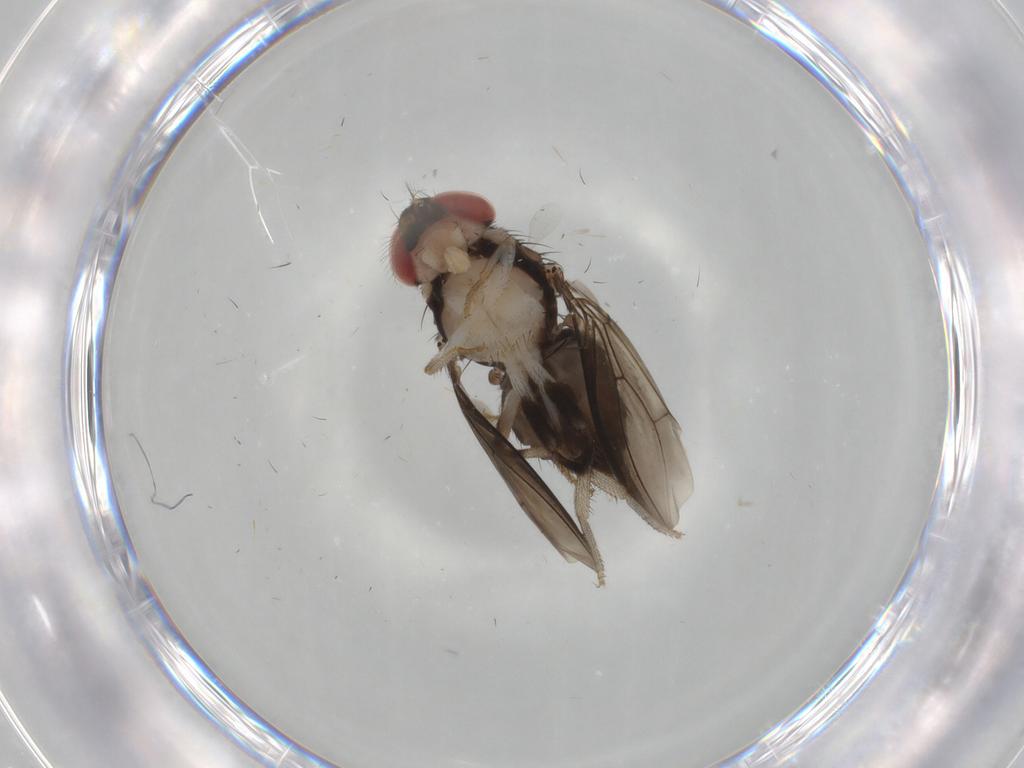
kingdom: Animalia
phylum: Arthropoda
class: Insecta
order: Diptera
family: Drosophilidae
